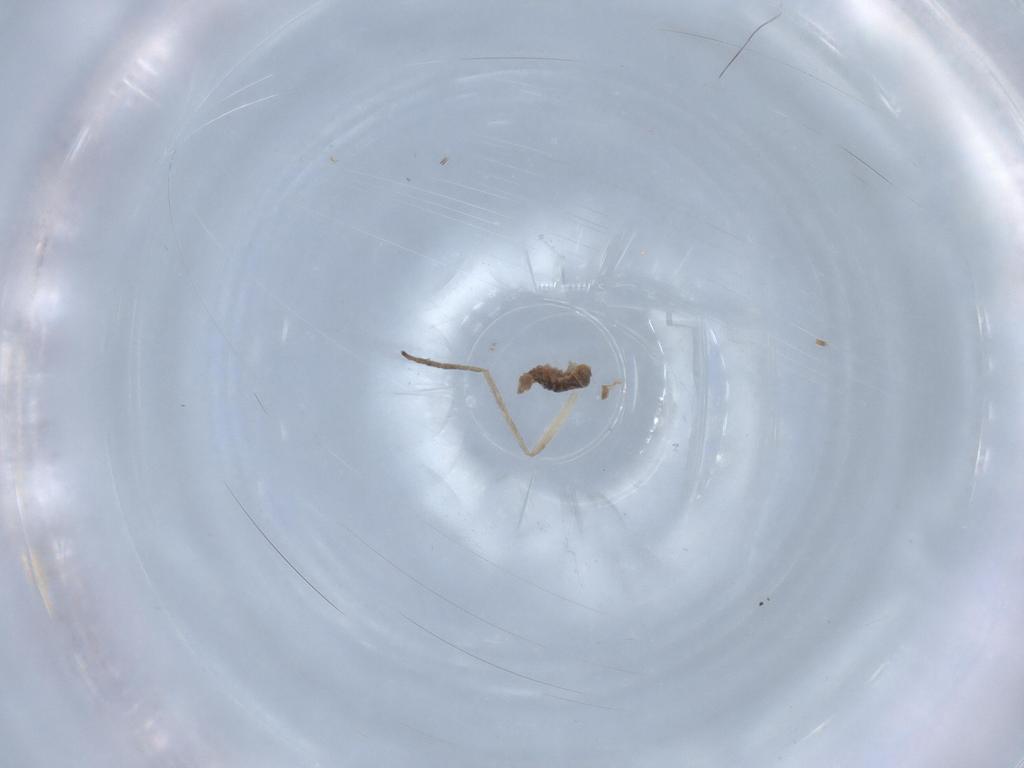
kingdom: Animalia
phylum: Arthropoda
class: Insecta
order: Diptera
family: Cecidomyiidae
